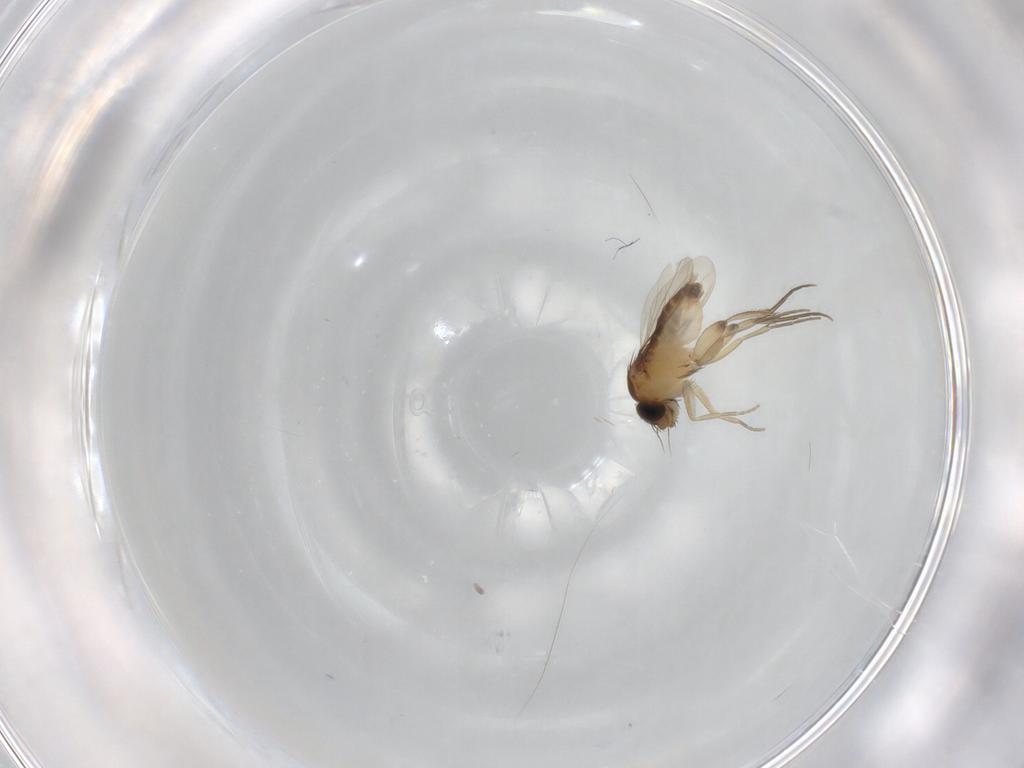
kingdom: Animalia
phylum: Arthropoda
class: Insecta
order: Diptera
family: Phoridae
